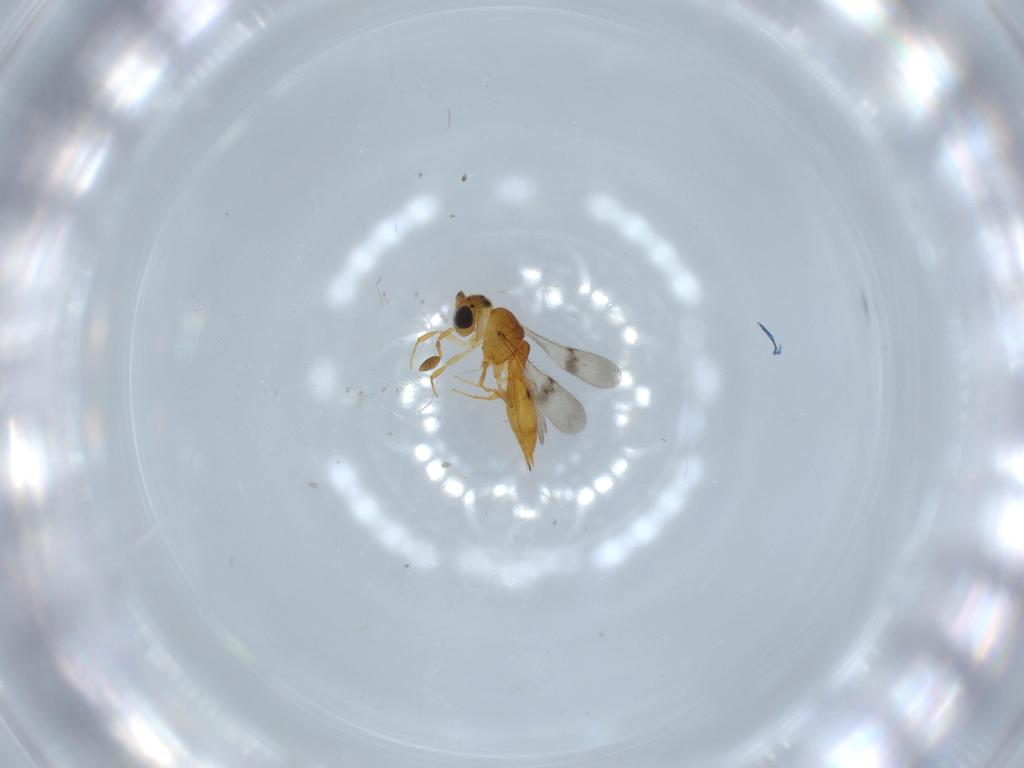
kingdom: Animalia
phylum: Arthropoda
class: Insecta
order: Hymenoptera
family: Scelionidae
